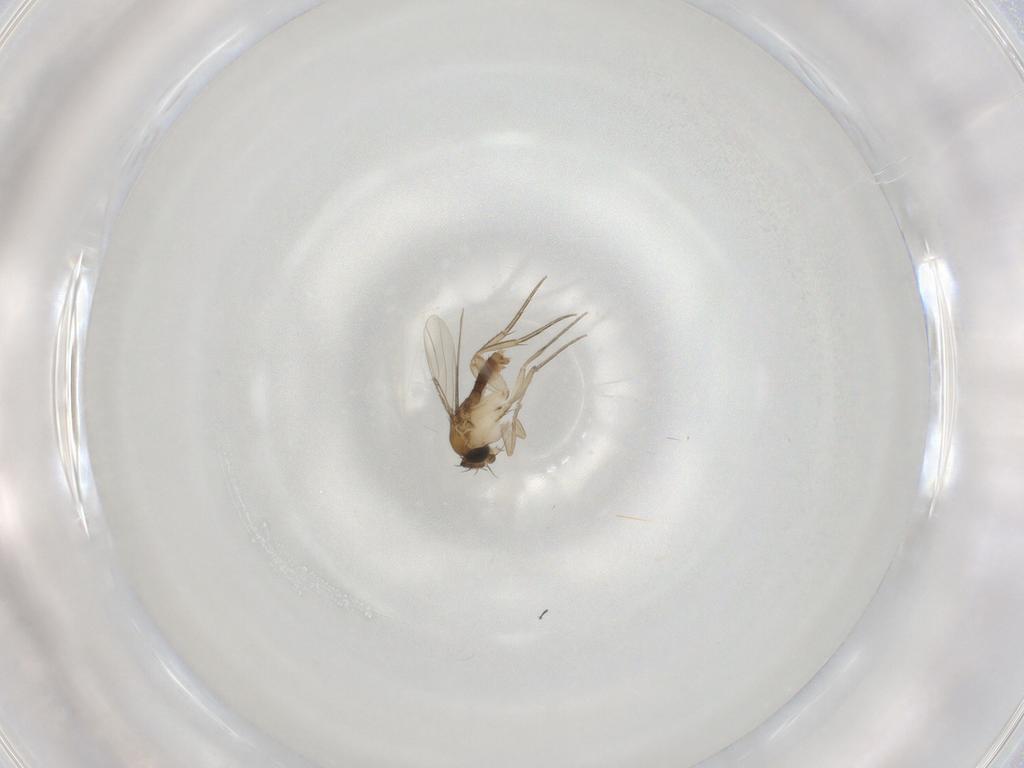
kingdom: Animalia
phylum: Arthropoda
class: Insecta
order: Diptera
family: Phoridae
